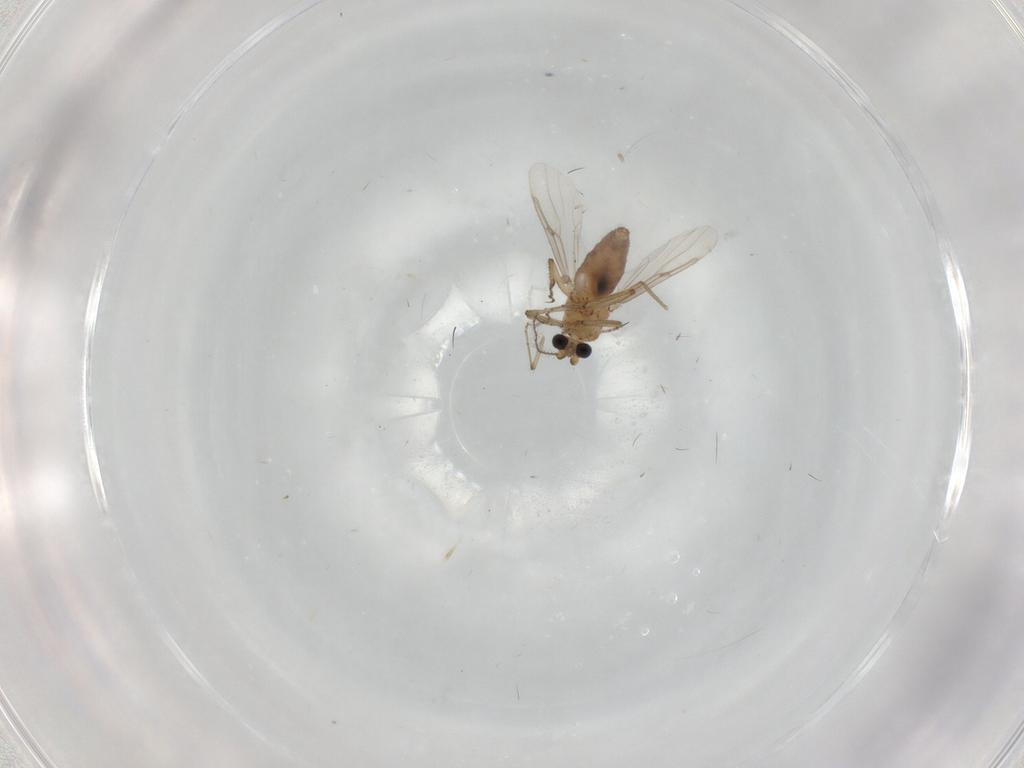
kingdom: Animalia
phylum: Arthropoda
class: Insecta
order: Diptera
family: Ceratopogonidae
